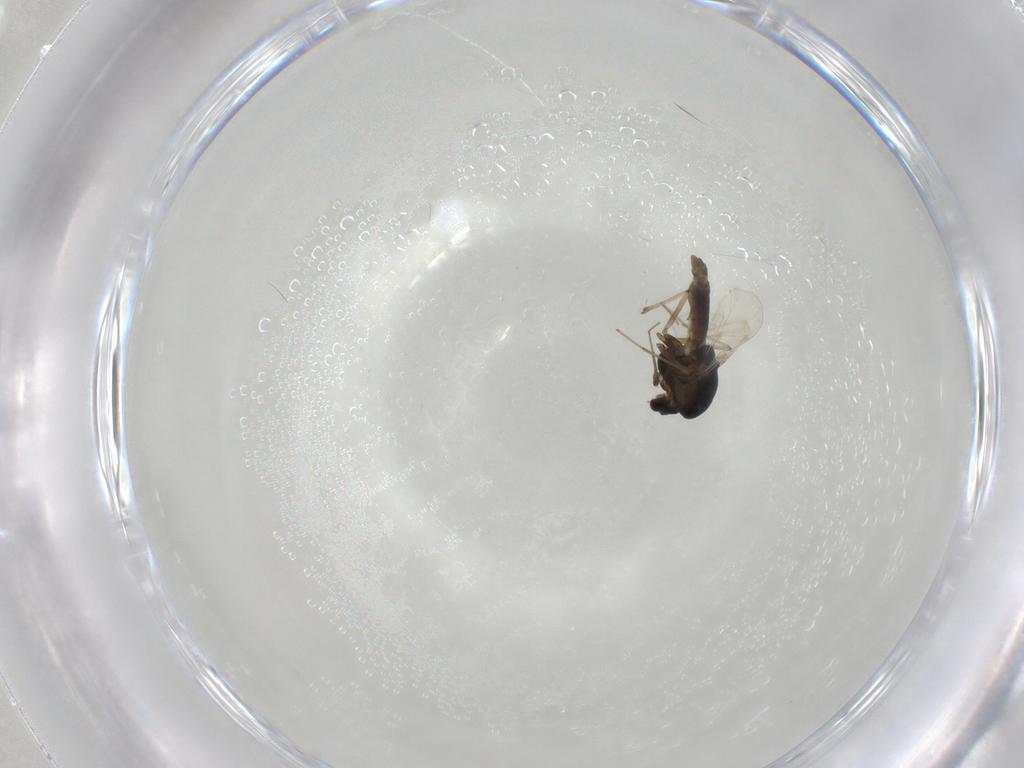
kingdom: Animalia
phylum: Arthropoda
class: Insecta
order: Diptera
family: Chironomidae
